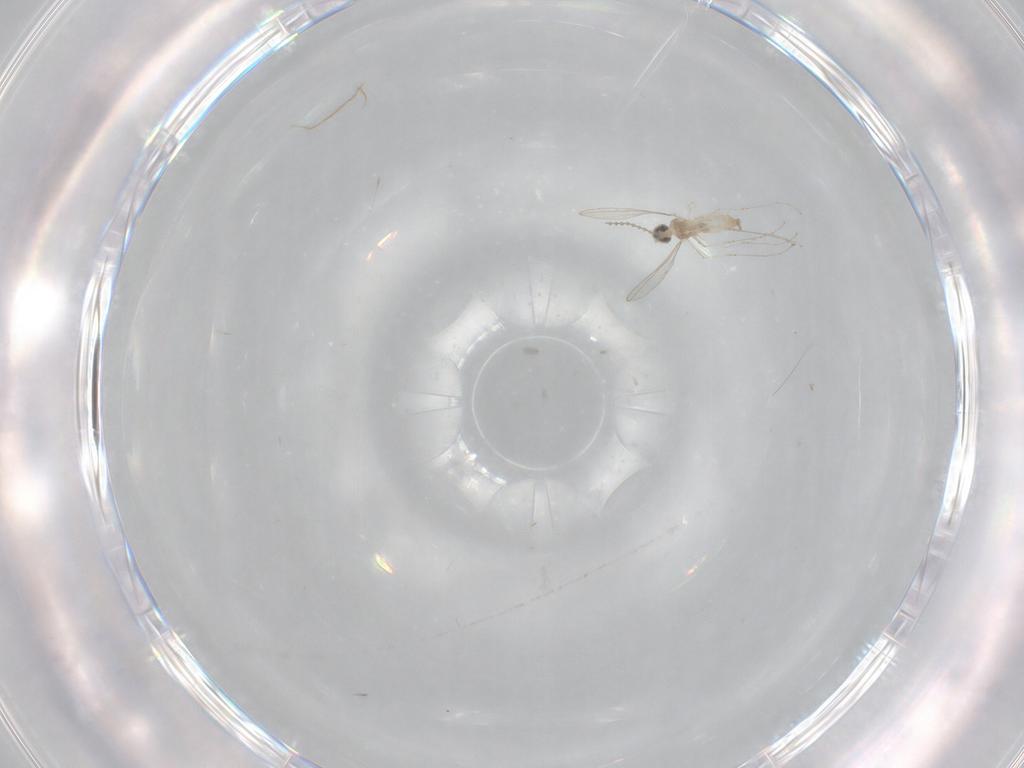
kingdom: Animalia
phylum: Arthropoda
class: Insecta
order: Diptera
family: Cecidomyiidae
